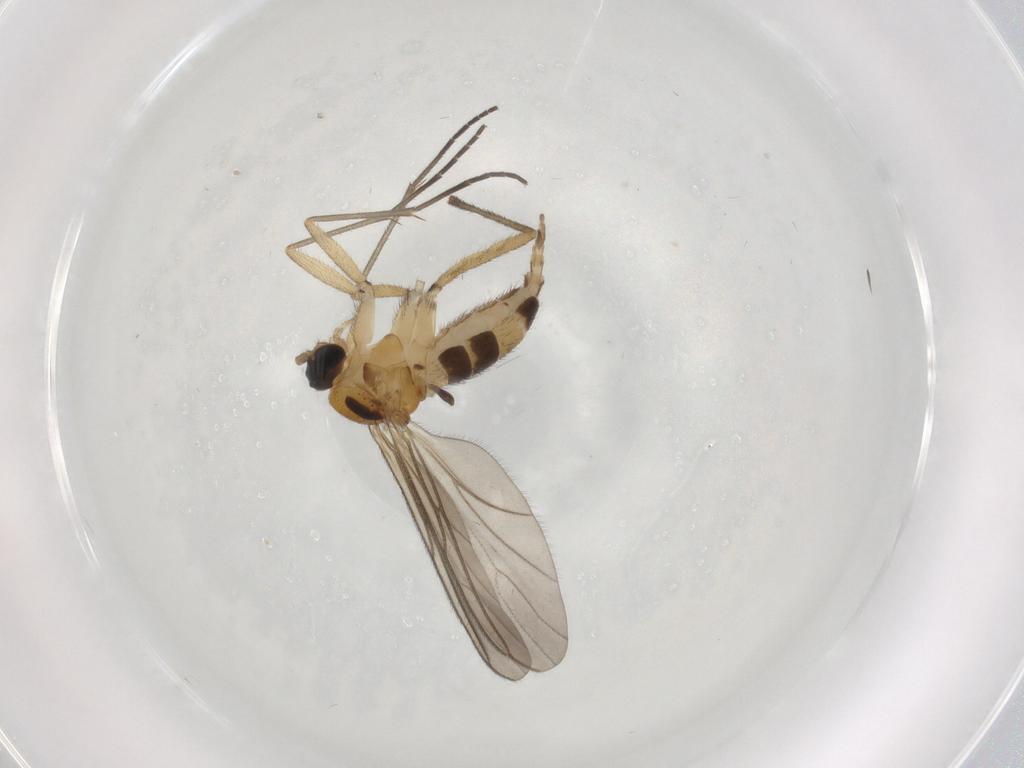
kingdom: Animalia
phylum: Arthropoda
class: Insecta
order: Diptera
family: Sciaridae
